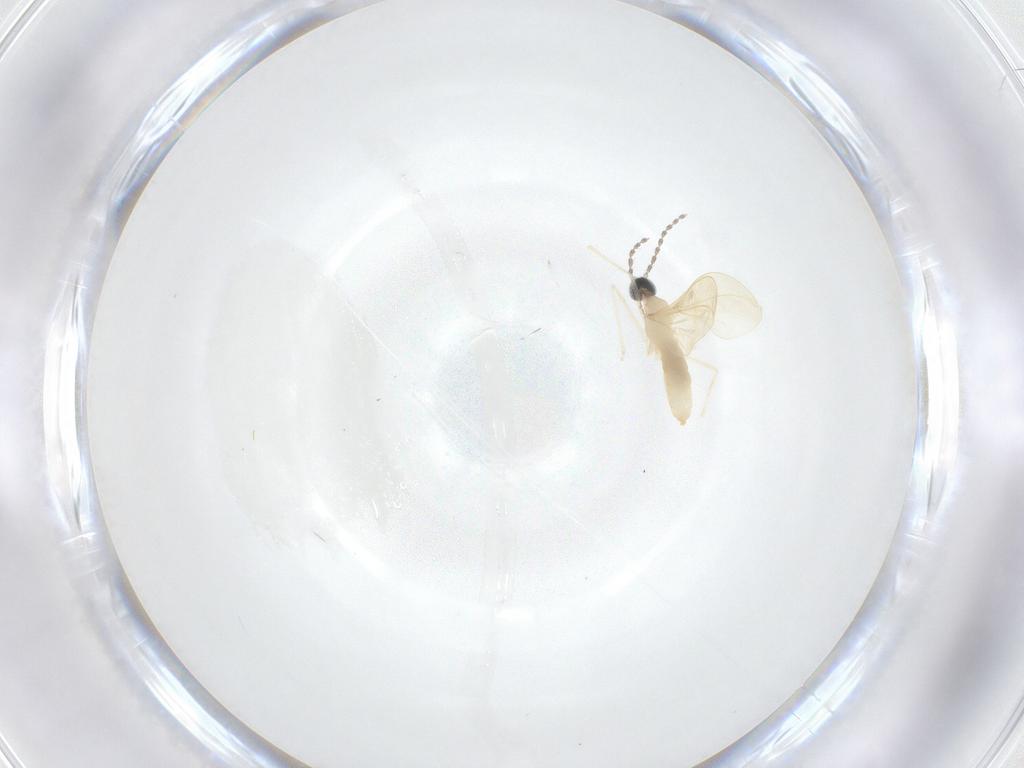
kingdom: Animalia
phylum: Arthropoda
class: Insecta
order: Diptera
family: Cecidomyiidae
